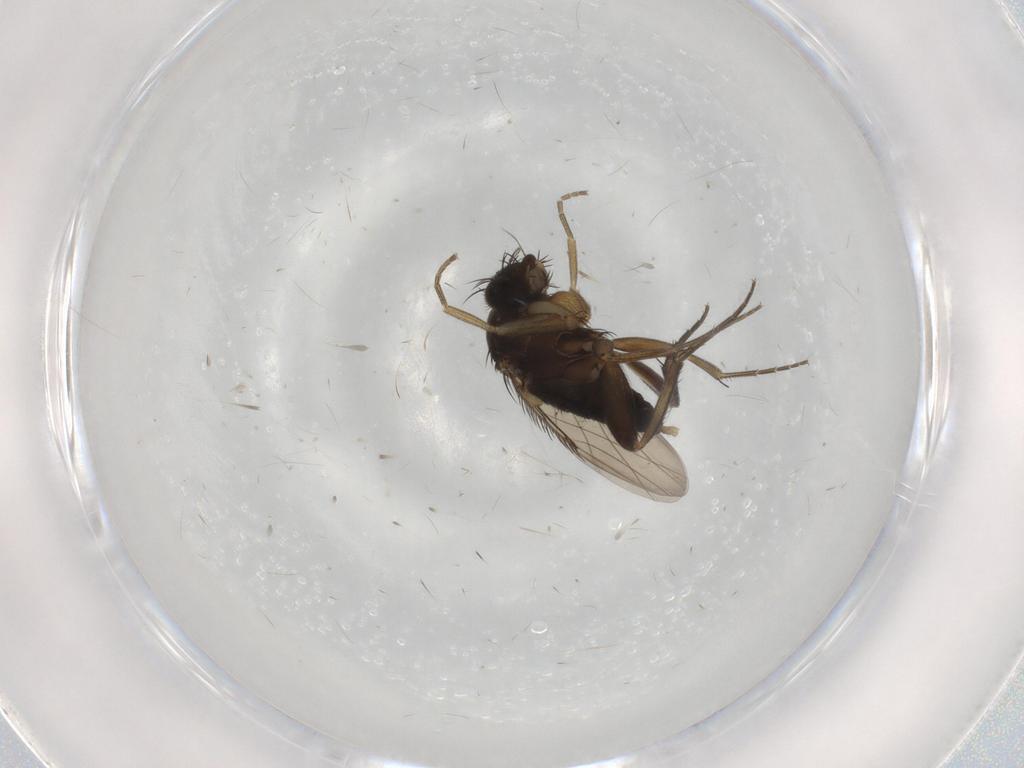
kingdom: Animalia
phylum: Arthropoda
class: Insecta
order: Diptera
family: Phoridae
